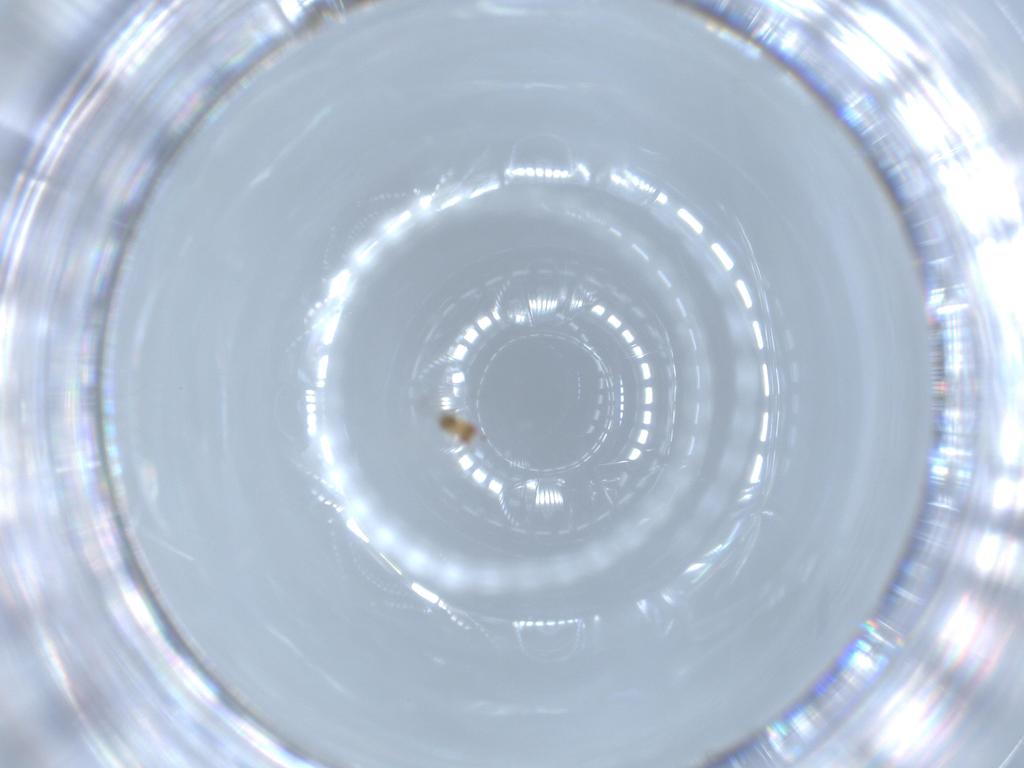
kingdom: Animalia
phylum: Arthropoda
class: Insecta
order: Hymenoptera
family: Trichogrammatidae
